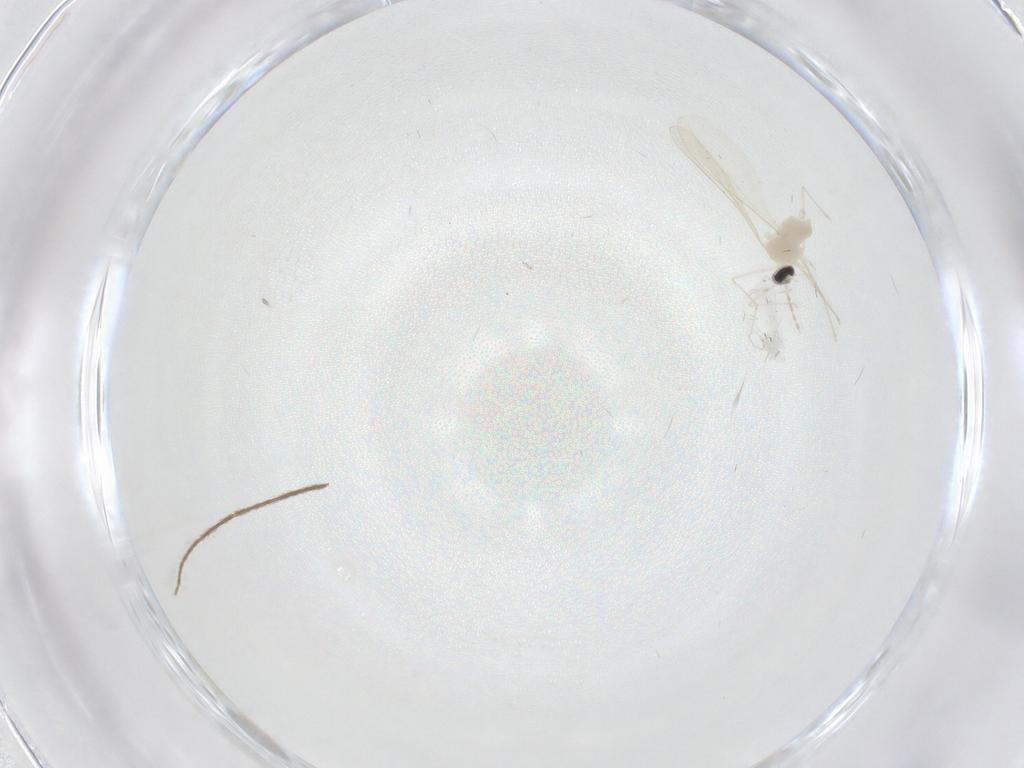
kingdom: Animalia
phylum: Arthropoda
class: Insecta
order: Diptera
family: Cecidomyiidae
